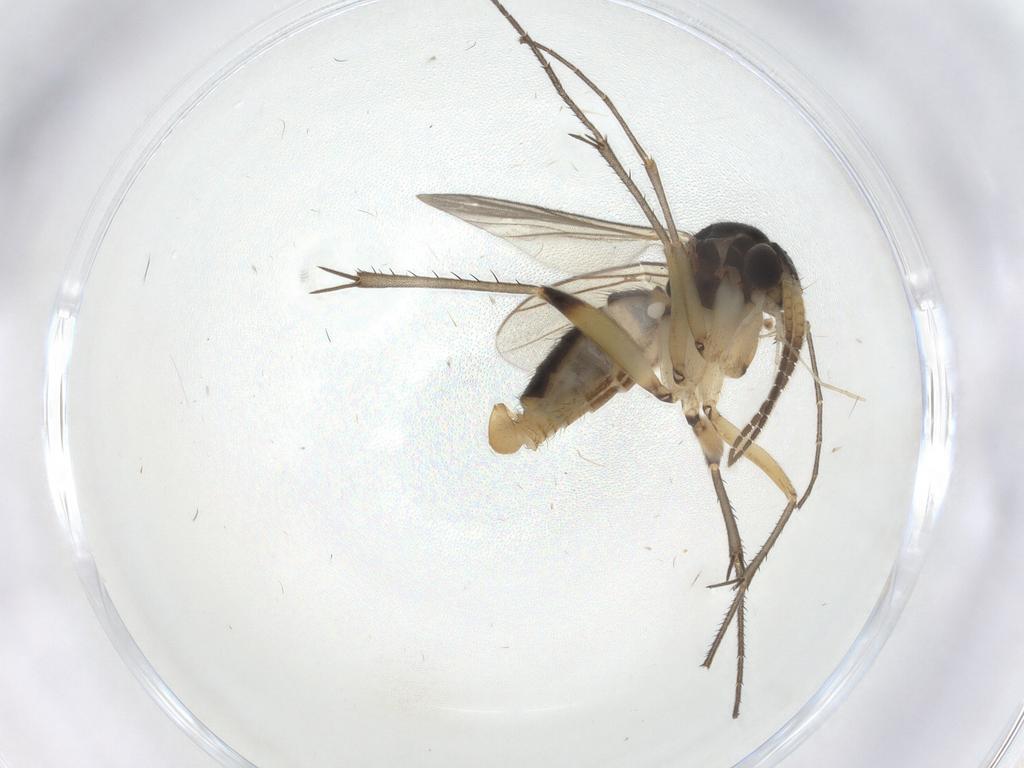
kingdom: Animalia
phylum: Arthropoda
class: Insecta
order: Diptera
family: Mycetophilidae
